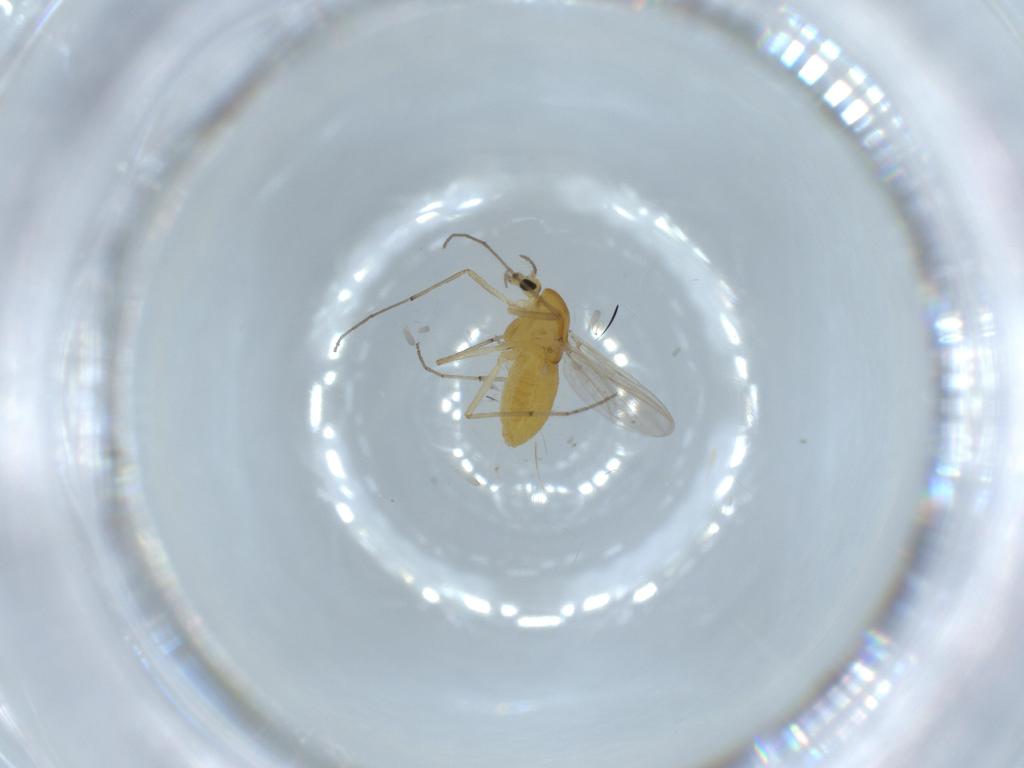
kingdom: Animalia
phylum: Arthropoda
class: Insecta
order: Diptera
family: Chironomidae
